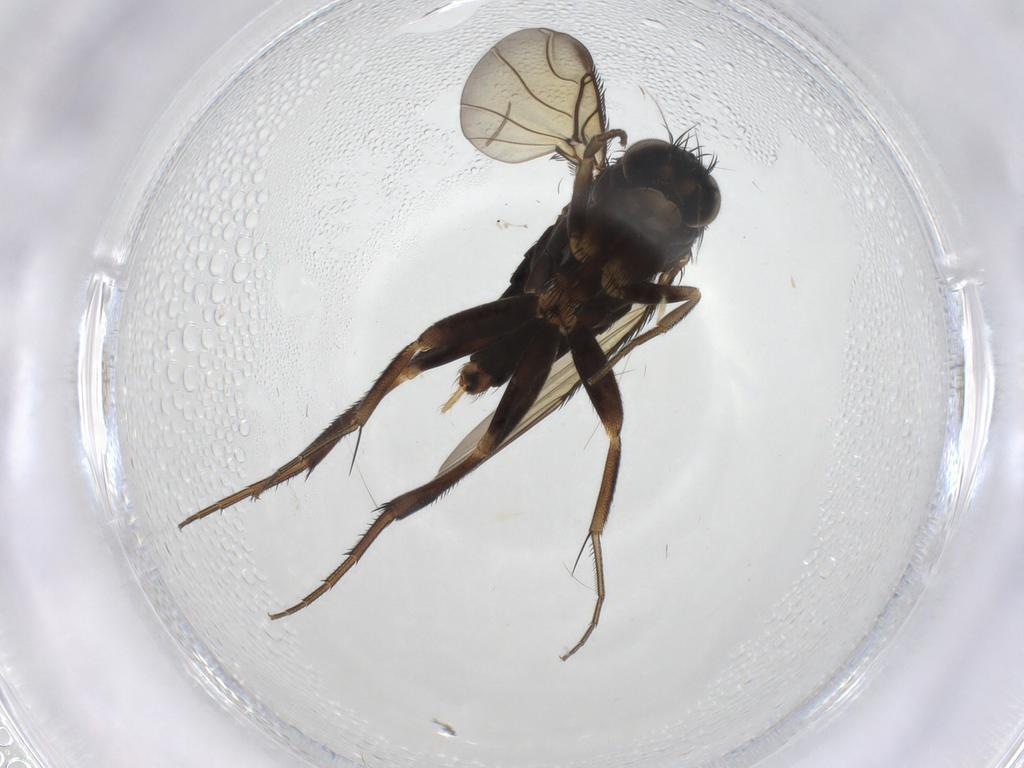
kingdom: Animalia
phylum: Arthropoda
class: Insecta
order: Diptera
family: Phoridae
